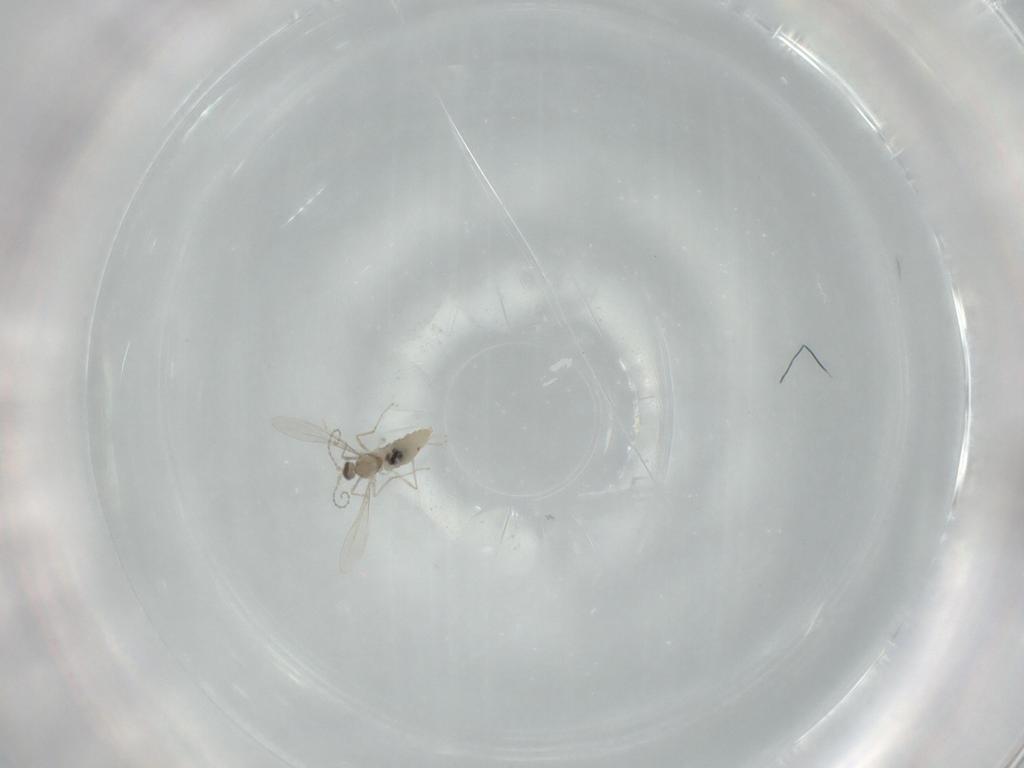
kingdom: Animalia
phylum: Arthropoda
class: Insecta
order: Diptera
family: Cecidomyiidae
